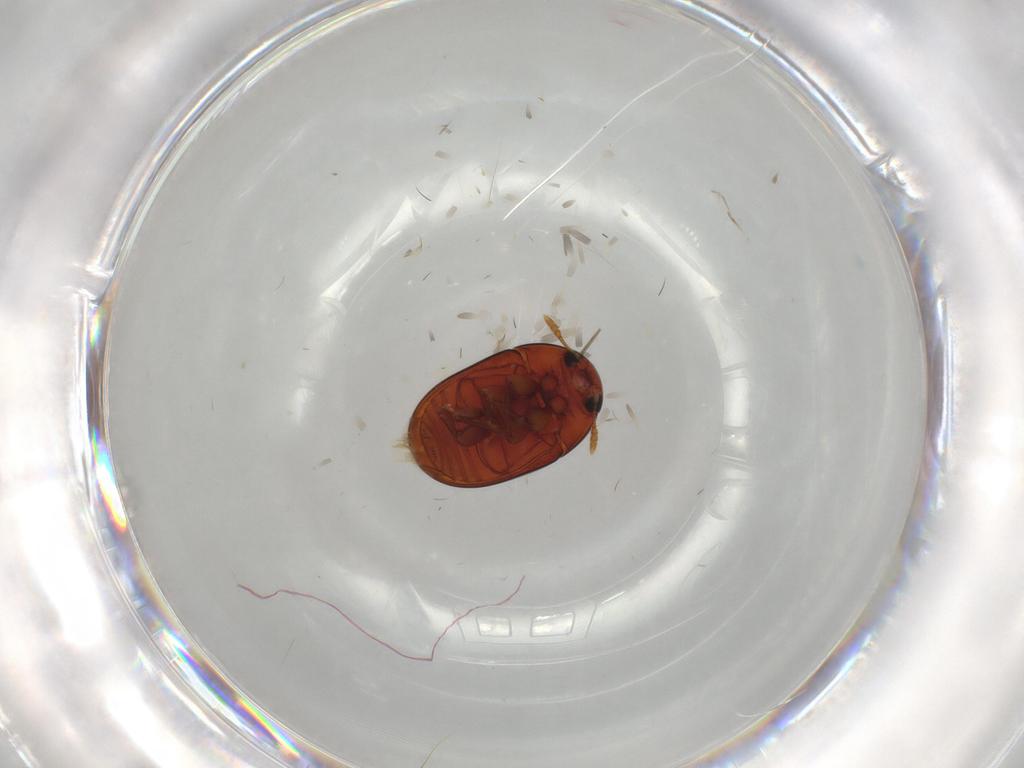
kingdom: Animalia
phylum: Arthropoda
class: Insecta
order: Coleoptera
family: Phalacridae
